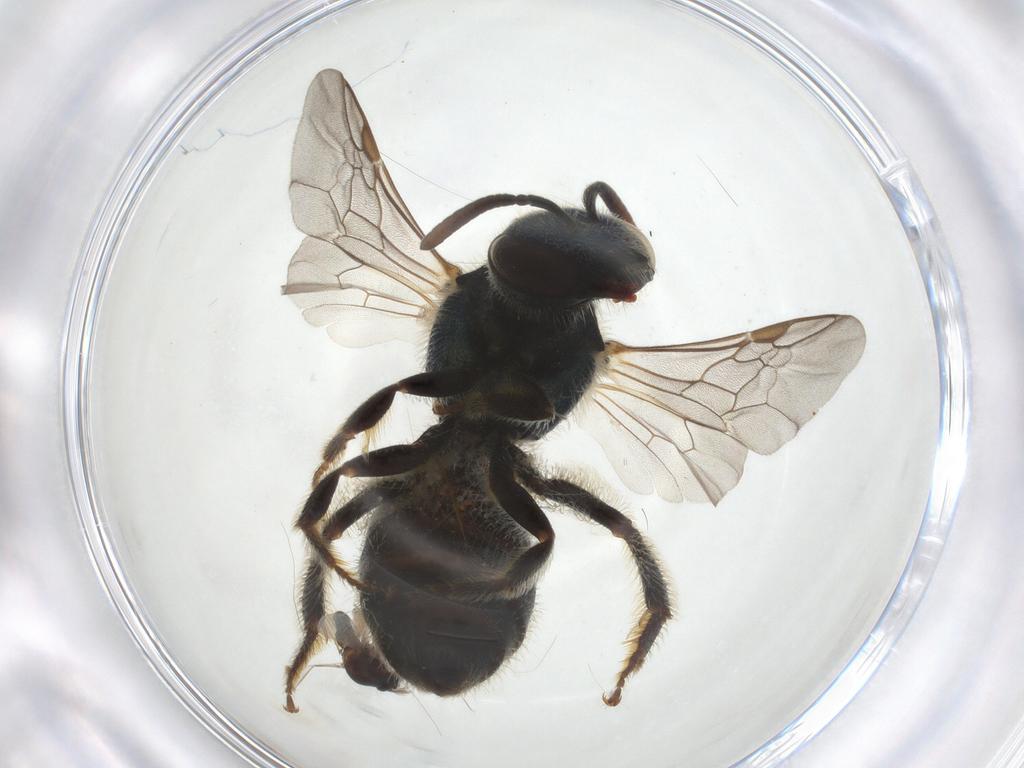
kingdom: Animalia
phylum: Arthropoda
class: Insecta
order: Hymenoptera
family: Halictidae
